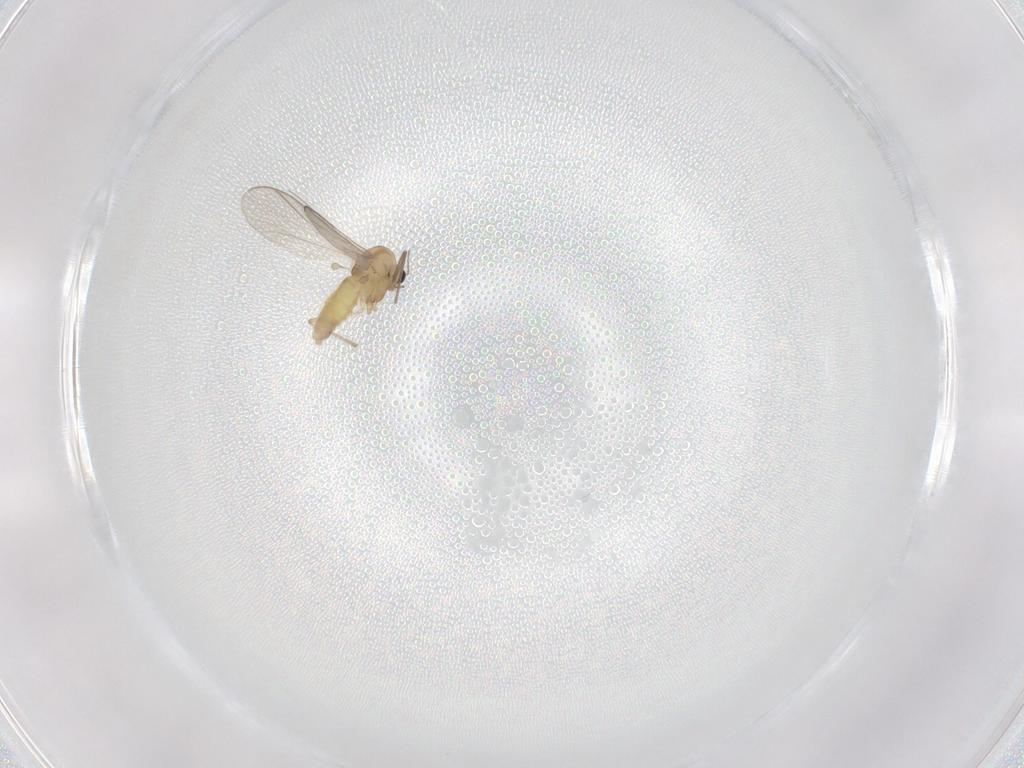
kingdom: Animalia
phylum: Arthropoda
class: Insecta
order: Diptera
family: Chironomidae
